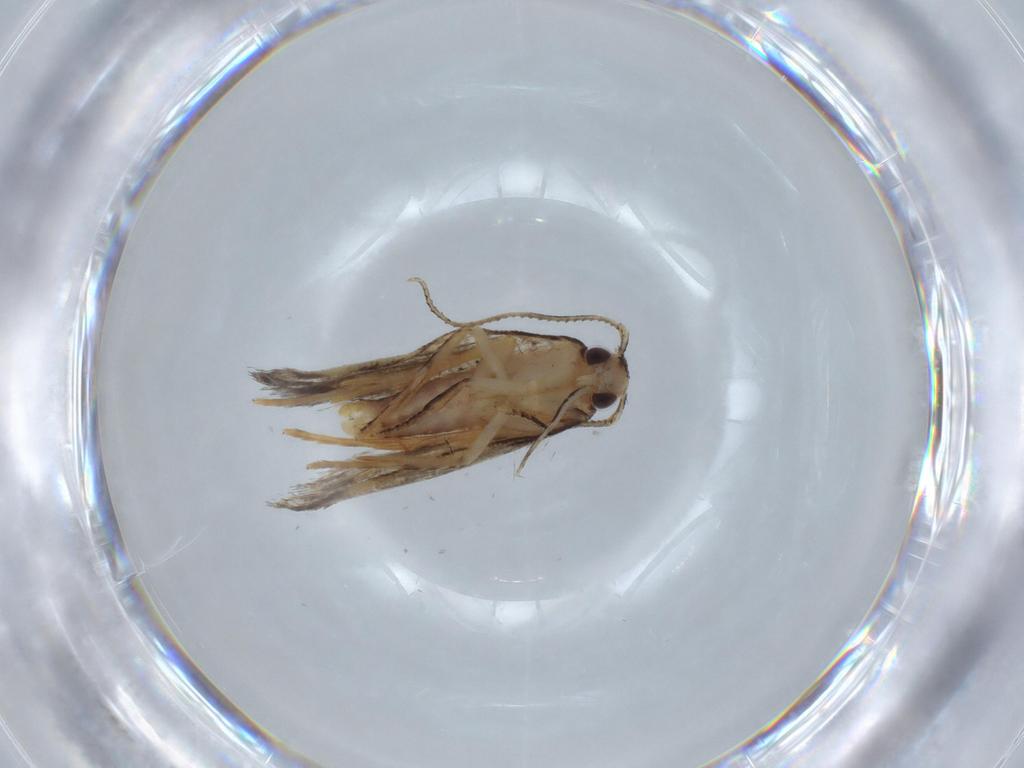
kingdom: Animalia
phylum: Arthropoda
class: Insecta
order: Lepidoptera
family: Cosmopterigidae
